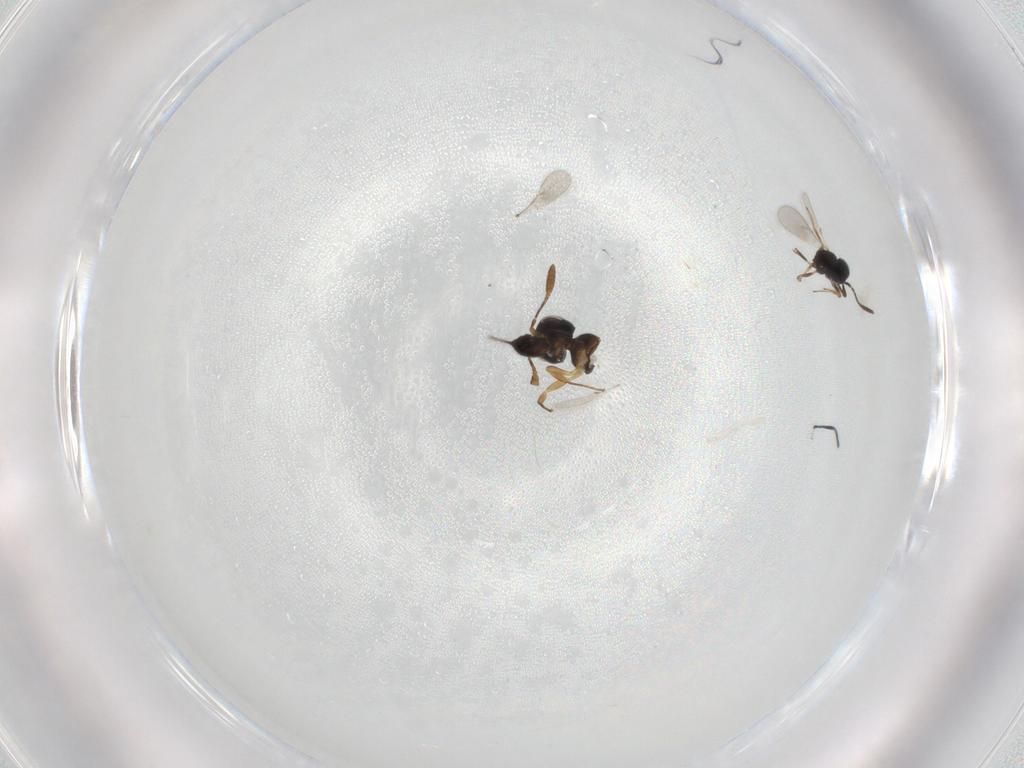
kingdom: Animalia
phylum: Arthropoda
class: Insecta
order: Hymenoptera
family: Scelionidae
